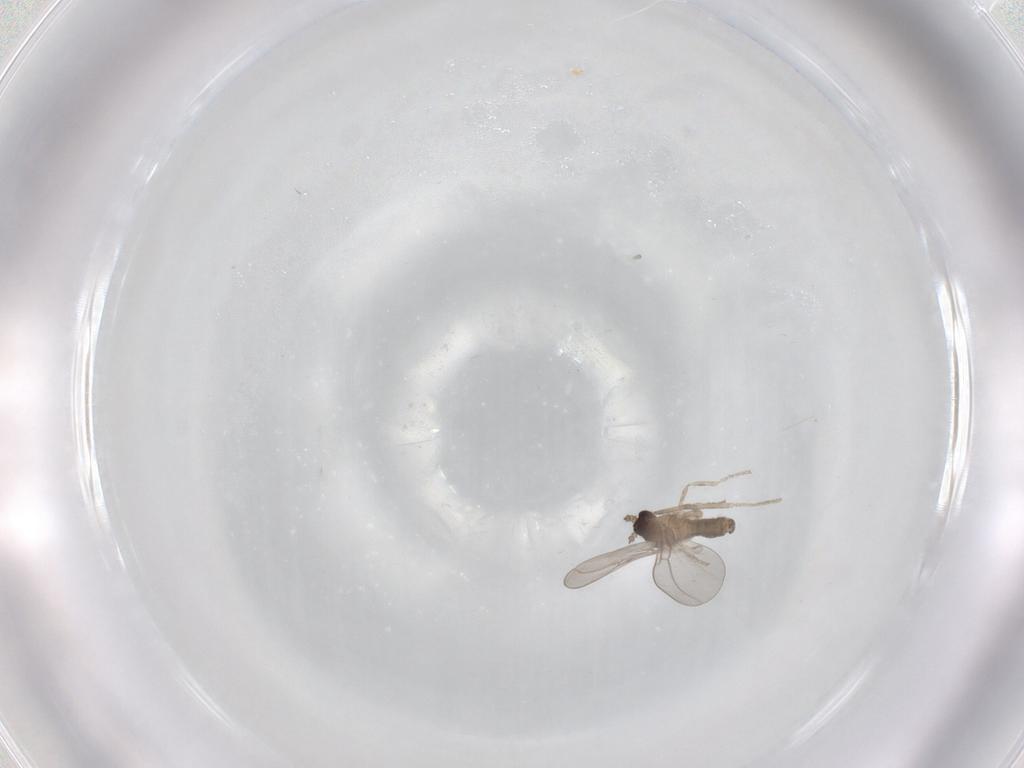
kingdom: Animalia
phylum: Arthropoda
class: Insecta
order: Diptera
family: Cecidomyiidae
